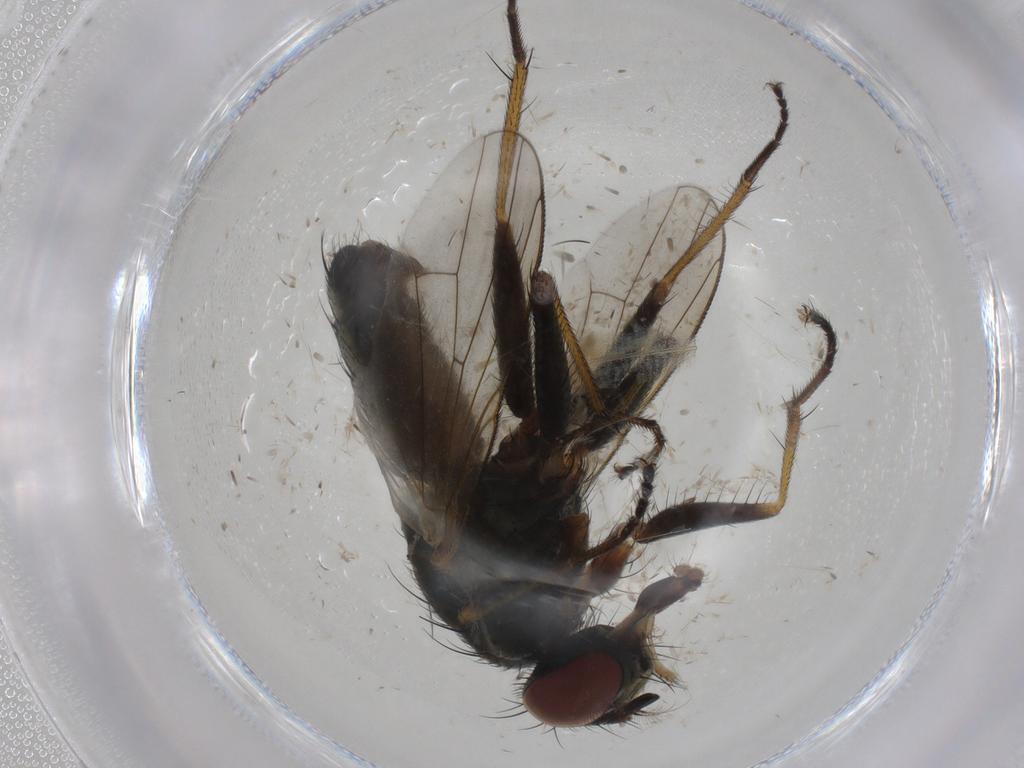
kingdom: Animalia
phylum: Arthropoda
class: Insecta
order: Diptera
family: Muscidae
